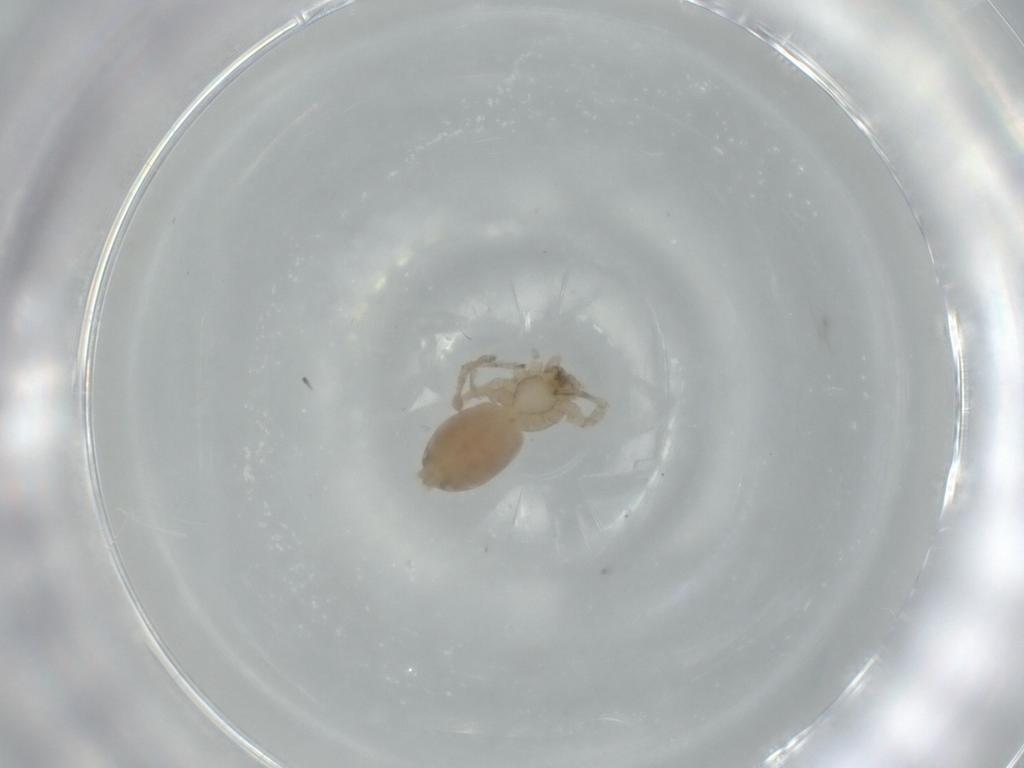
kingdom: Animalia
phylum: Arthropoda
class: Arachnida
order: Araneae
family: Amaurobiidae
